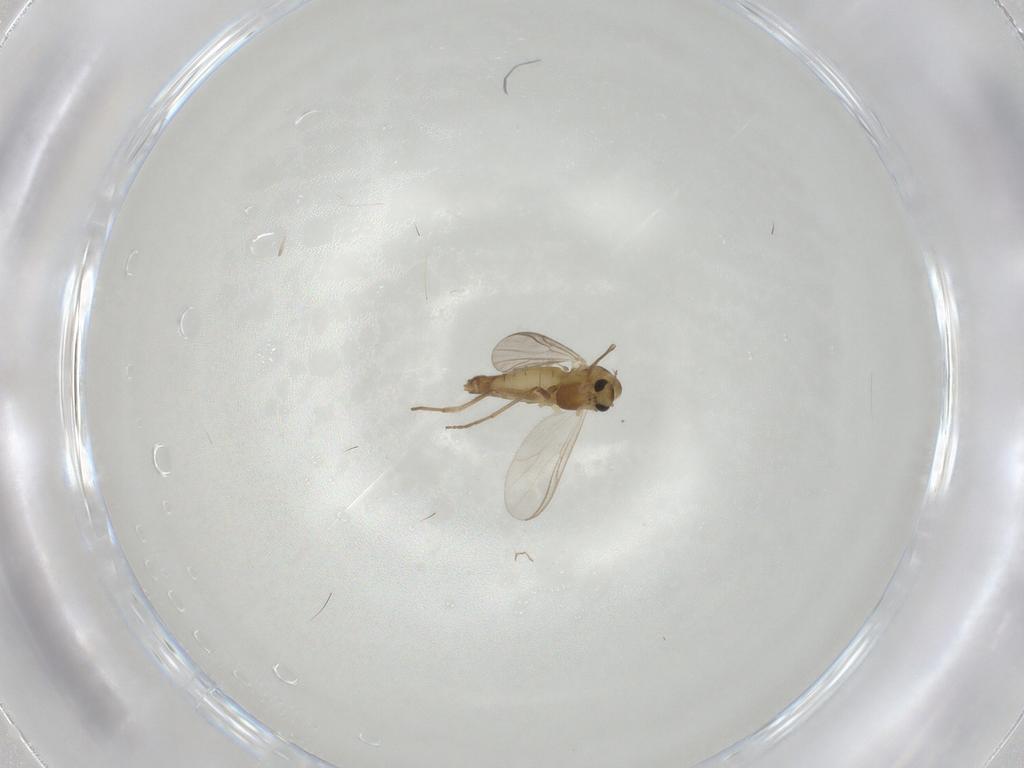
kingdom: Animalia
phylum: Arthropoda
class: Insecta
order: Diptera
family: Chironomidae
